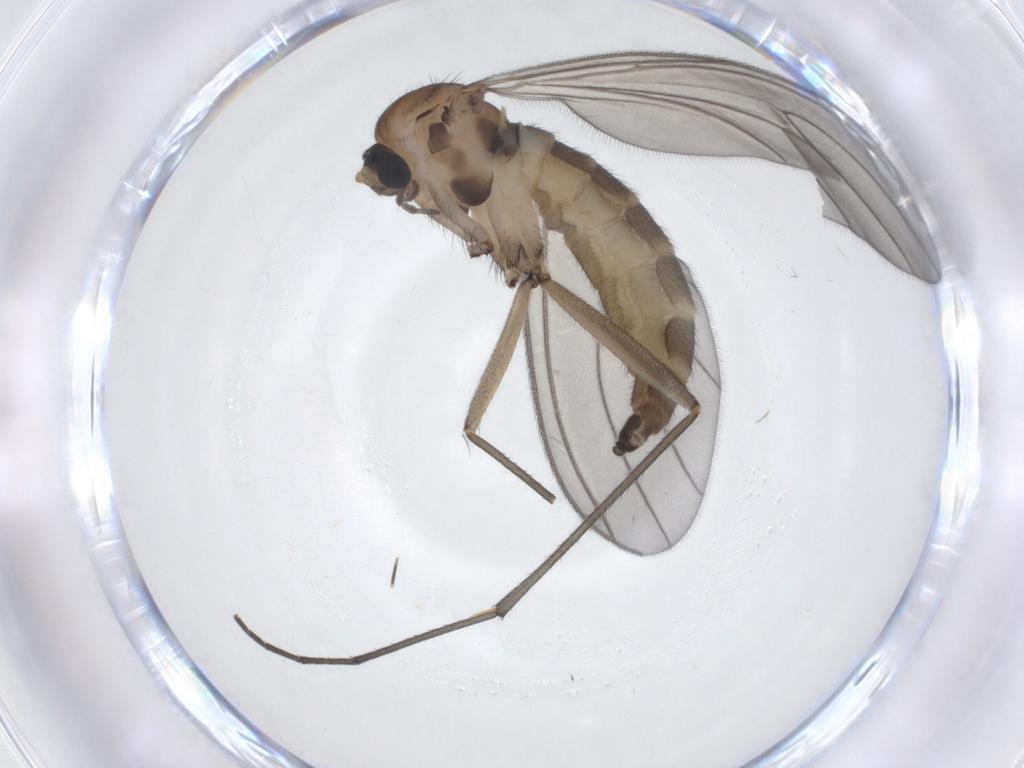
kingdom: Animalia
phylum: Arthropoda
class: Insecta
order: Diptera
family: Sciaridae
